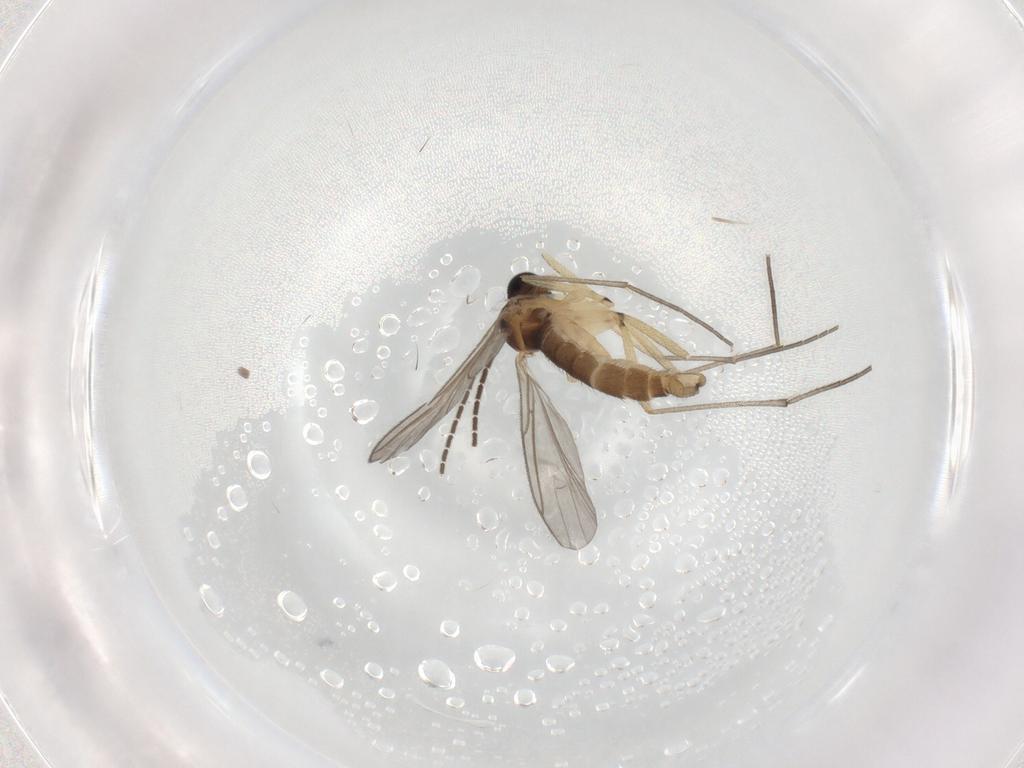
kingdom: Animalia
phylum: Arthropoda
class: Insecta
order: Diptera
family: Sciaridae
